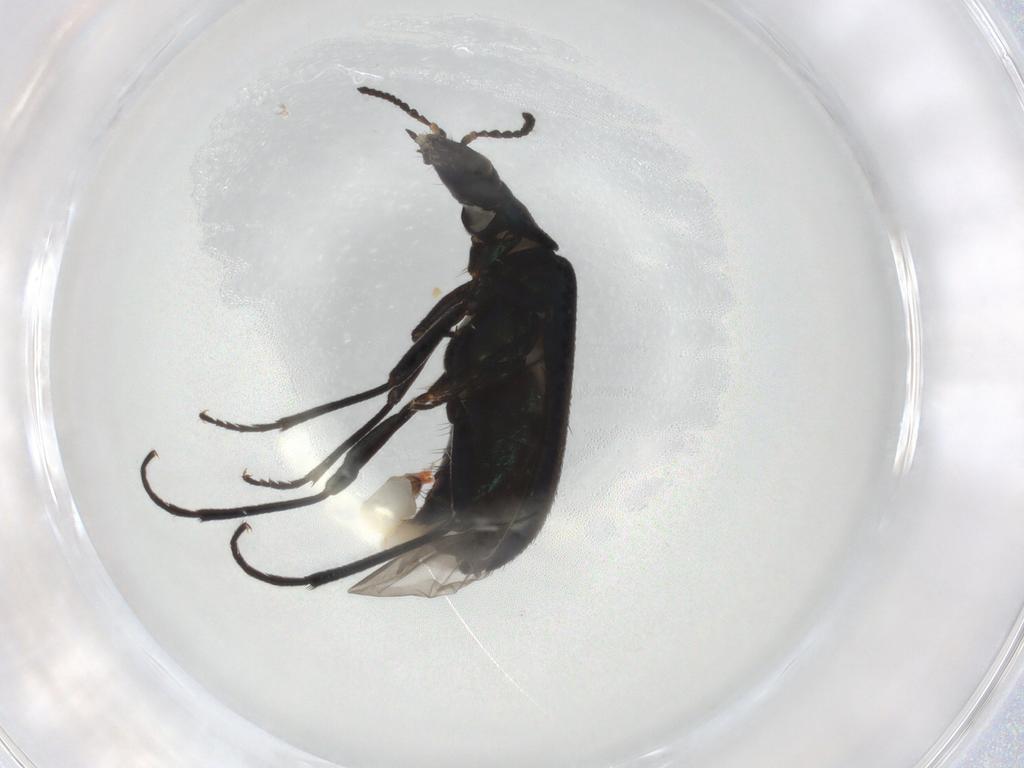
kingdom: Animalia
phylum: Arthropoda
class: Insecta
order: Coleoptera
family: Melyridae
